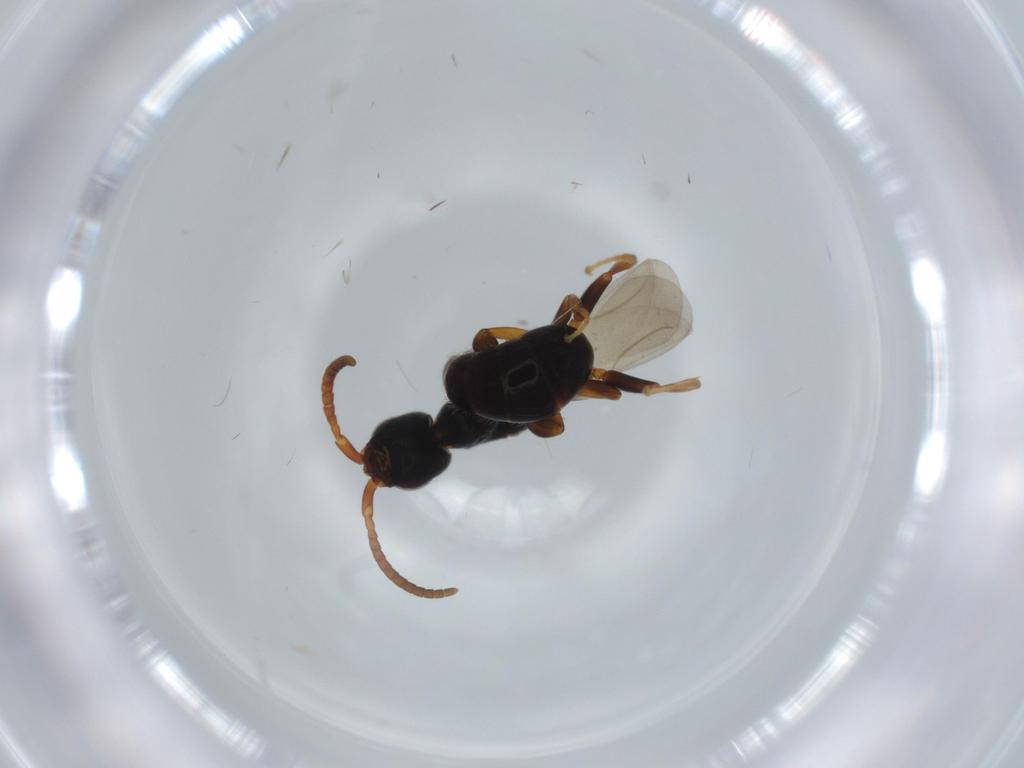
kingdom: Animalia
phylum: Arthropoda
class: Insecta
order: Hymenoptera
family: Bethylidae
